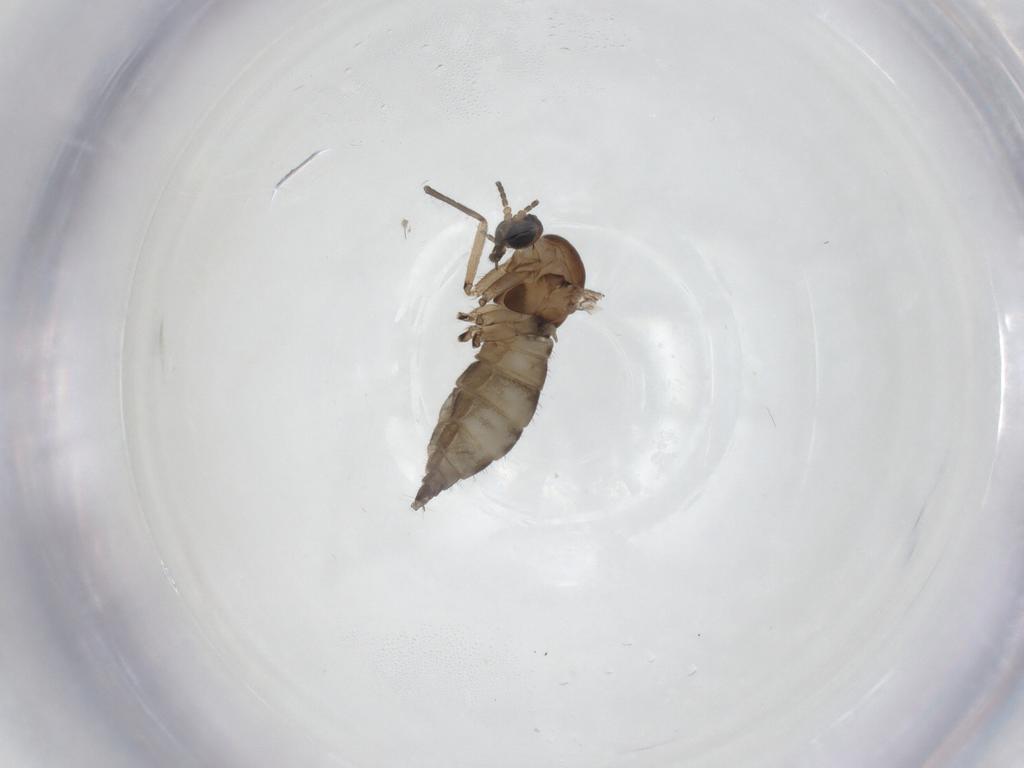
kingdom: Animalia
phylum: Arthropoda
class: Insecta
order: Diptera
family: Sciaridae
